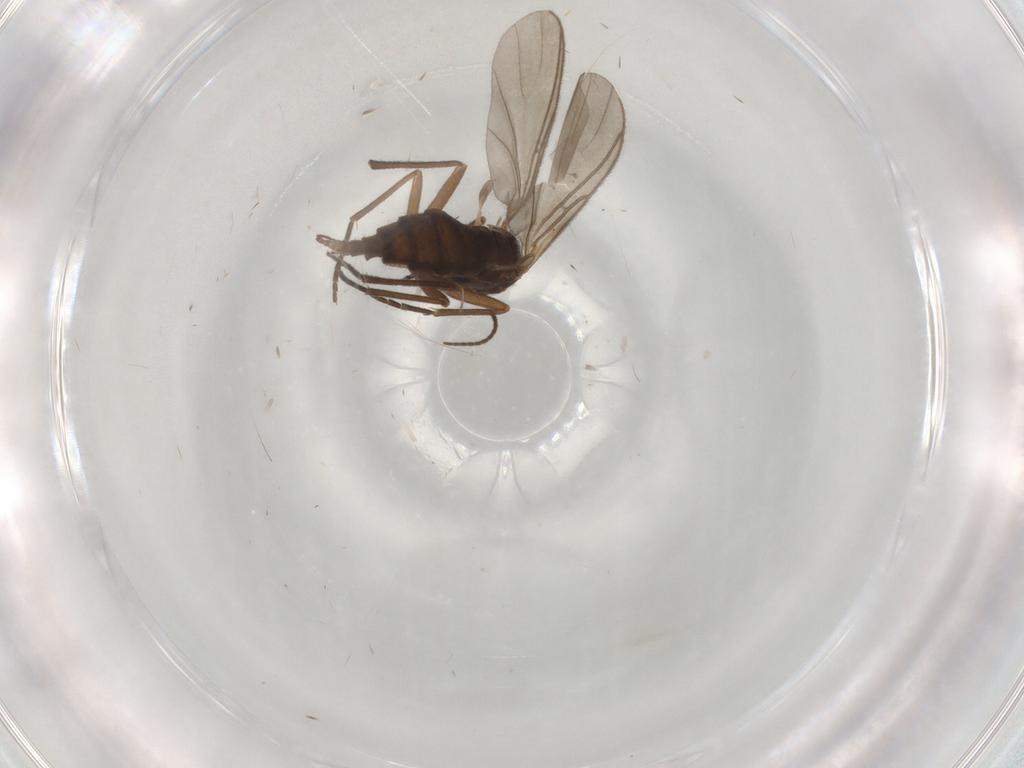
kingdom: Animalia
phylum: Arthropoda
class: Insecta
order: Diptera
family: Sciaridae
